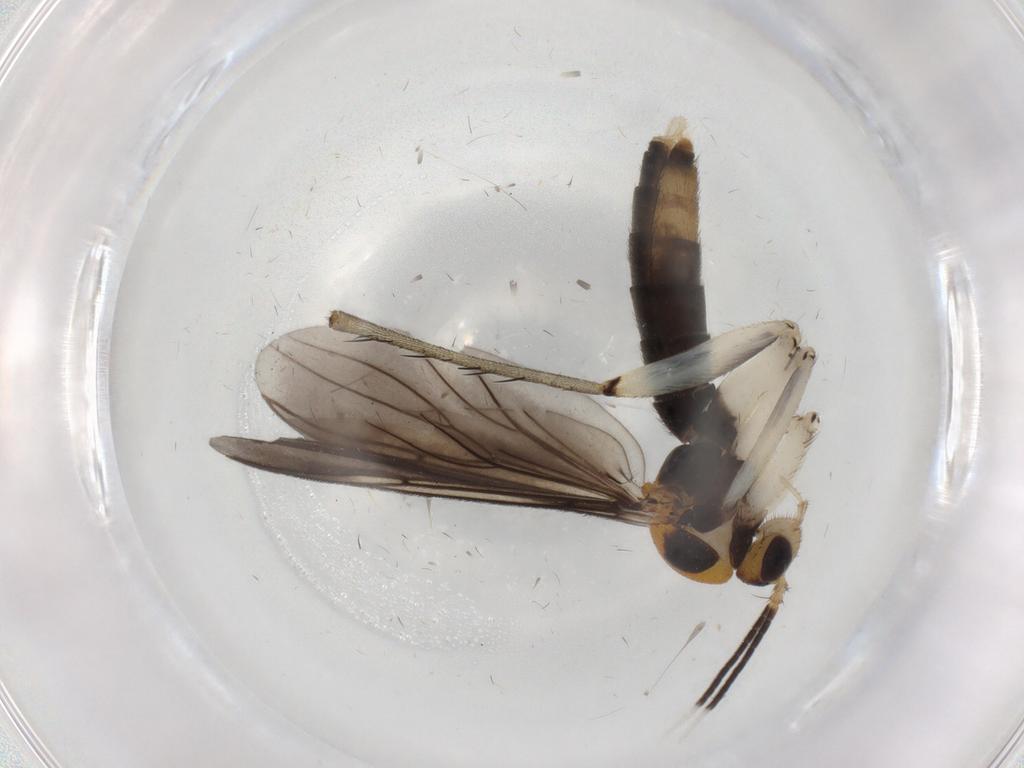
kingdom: Animalia
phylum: Arthropoda
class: Insecta
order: Diptera
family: Mycetophilidae
